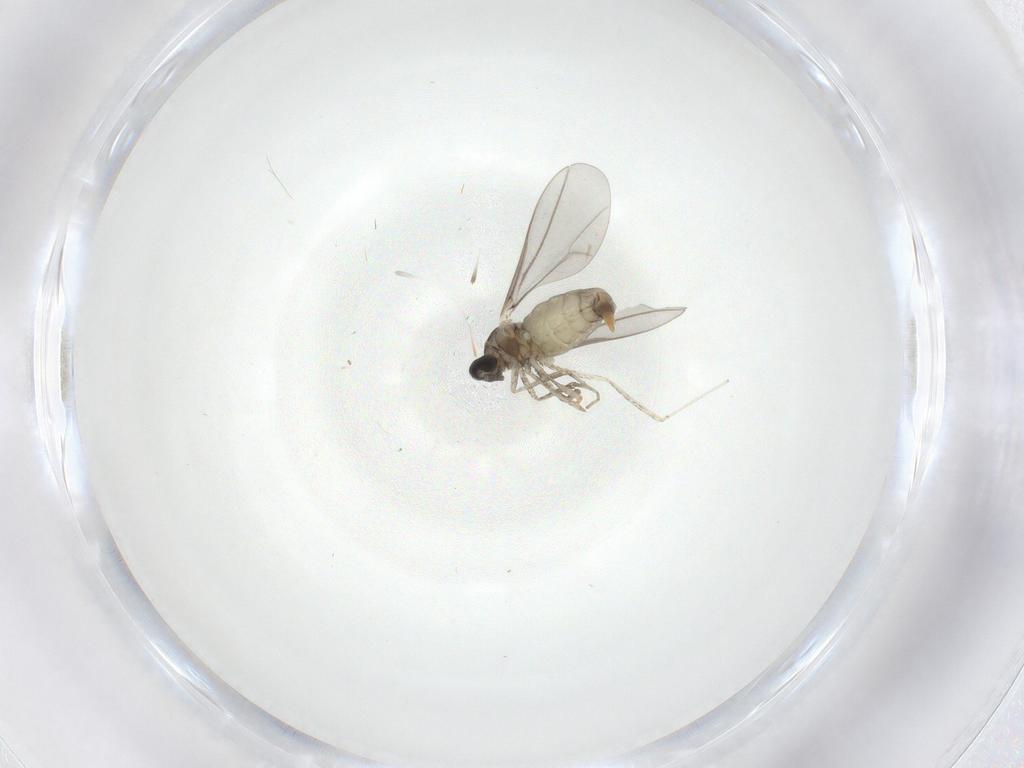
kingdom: Animalia
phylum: Arthropoda
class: Insecta
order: Diptera
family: Cecidomyiidae
